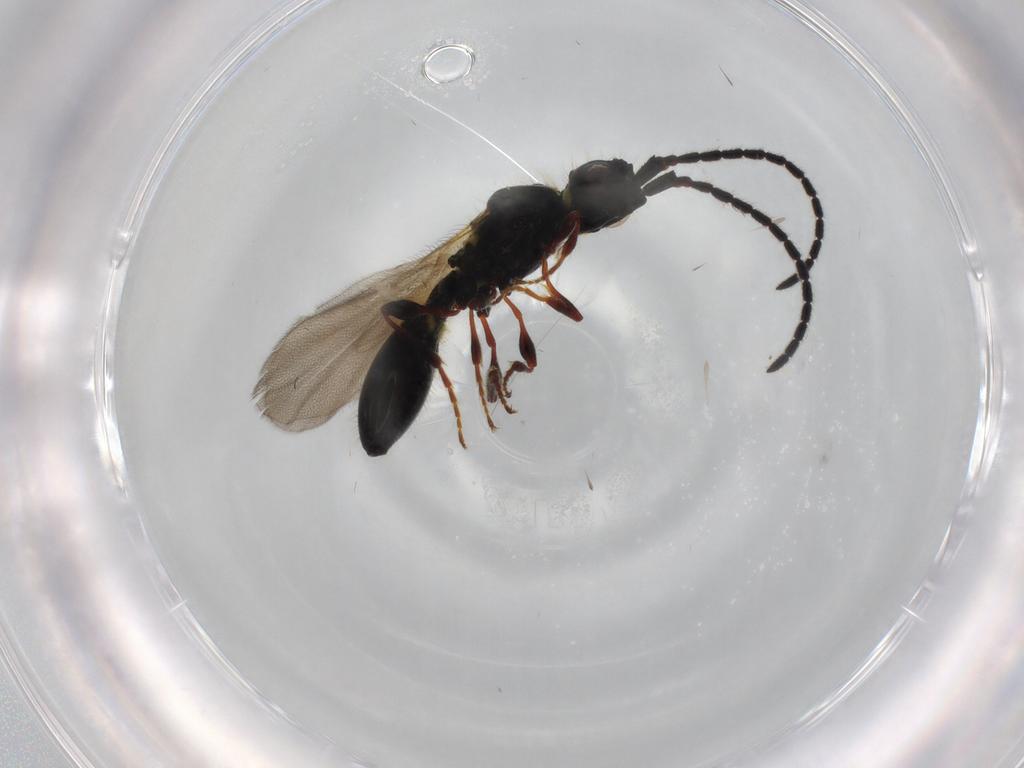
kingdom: Animalia
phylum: Arthropoda
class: Insecta
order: Hymenoptera
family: Diapriidae
